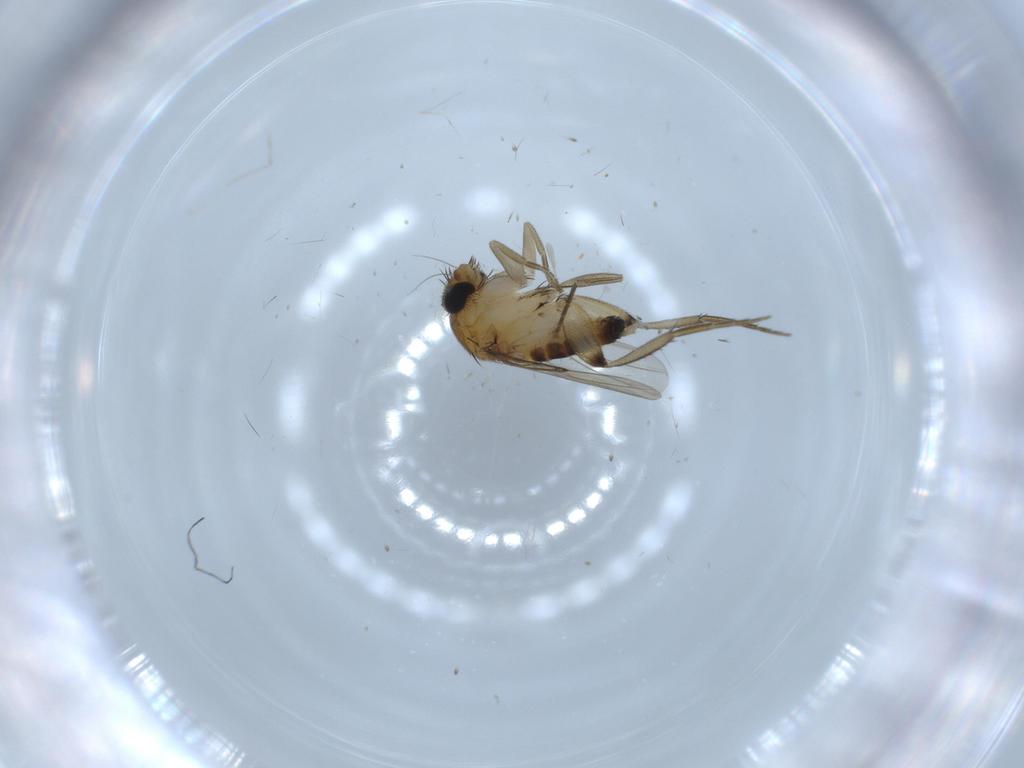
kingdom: Animalia
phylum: Arthropoda
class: Insecta
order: Diptera
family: Phoridae
